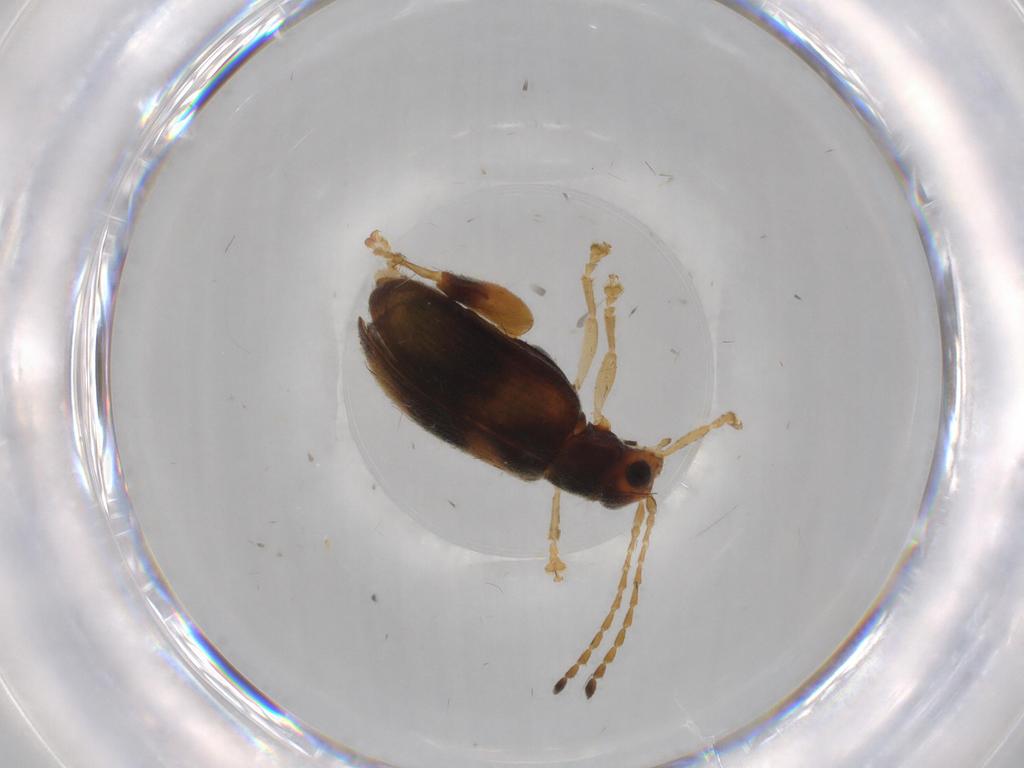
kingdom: Animalia
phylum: Arthropoda
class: Insecta
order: Coleoptera
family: Chrysomelidae
